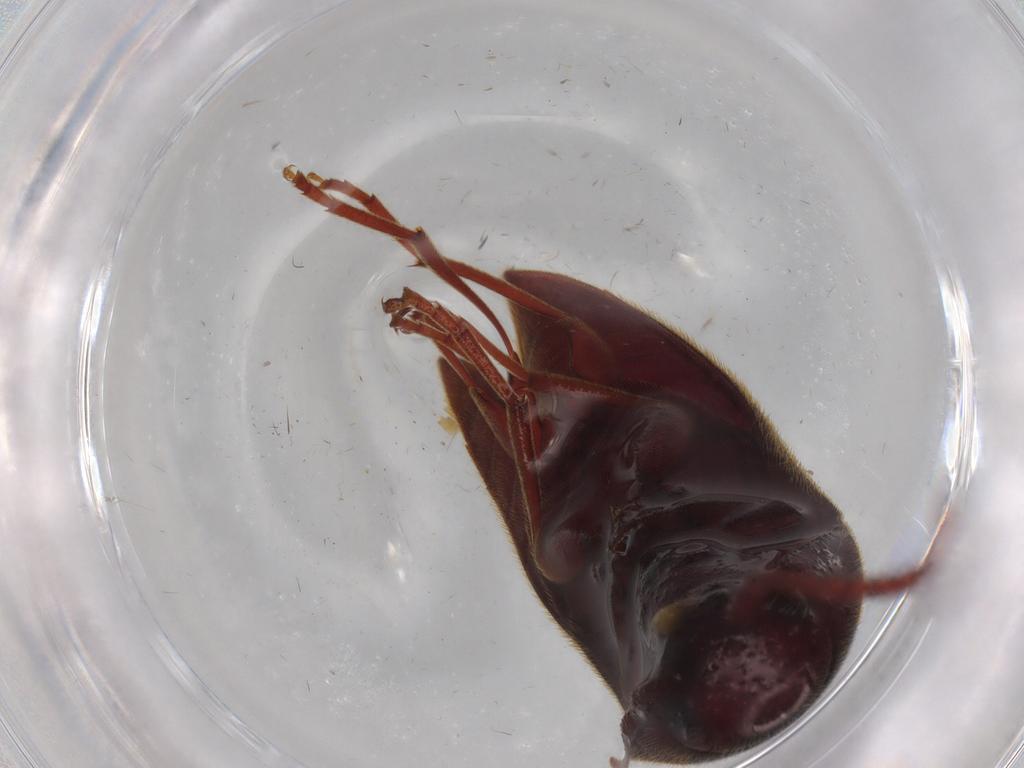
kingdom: Animalia
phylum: Arthropoda
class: Insecta
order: Coleoptera
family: Eucnemidae
